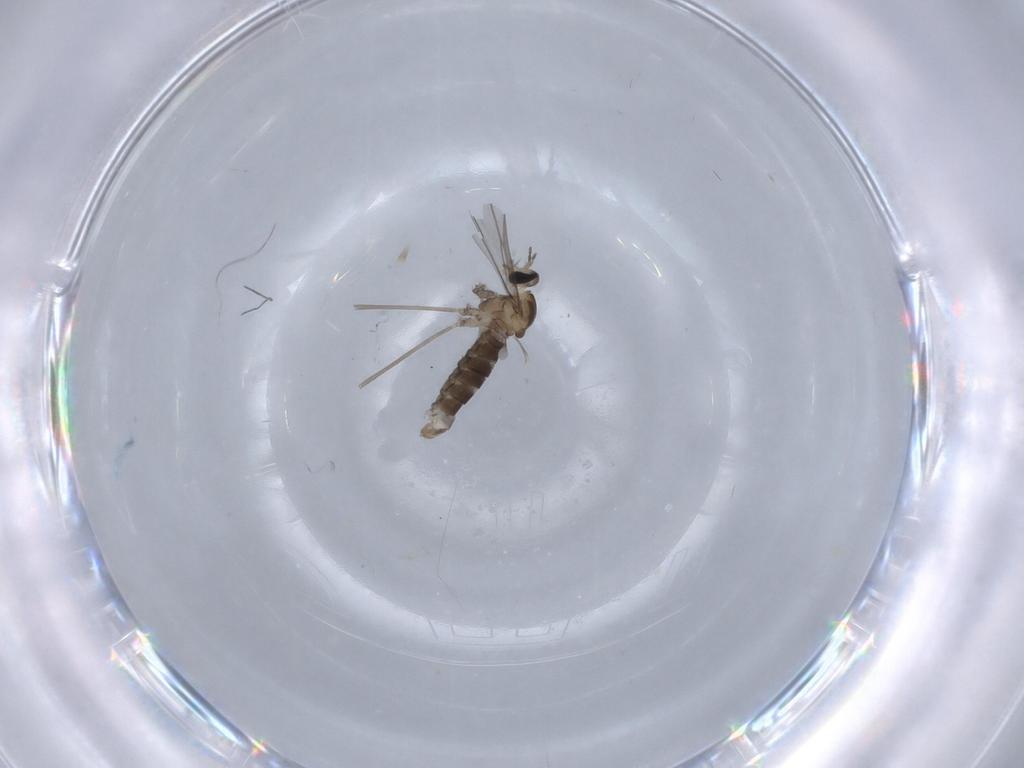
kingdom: Animalia
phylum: Arthropoda
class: Insecta
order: Diptera
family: Cecidomyiidae
